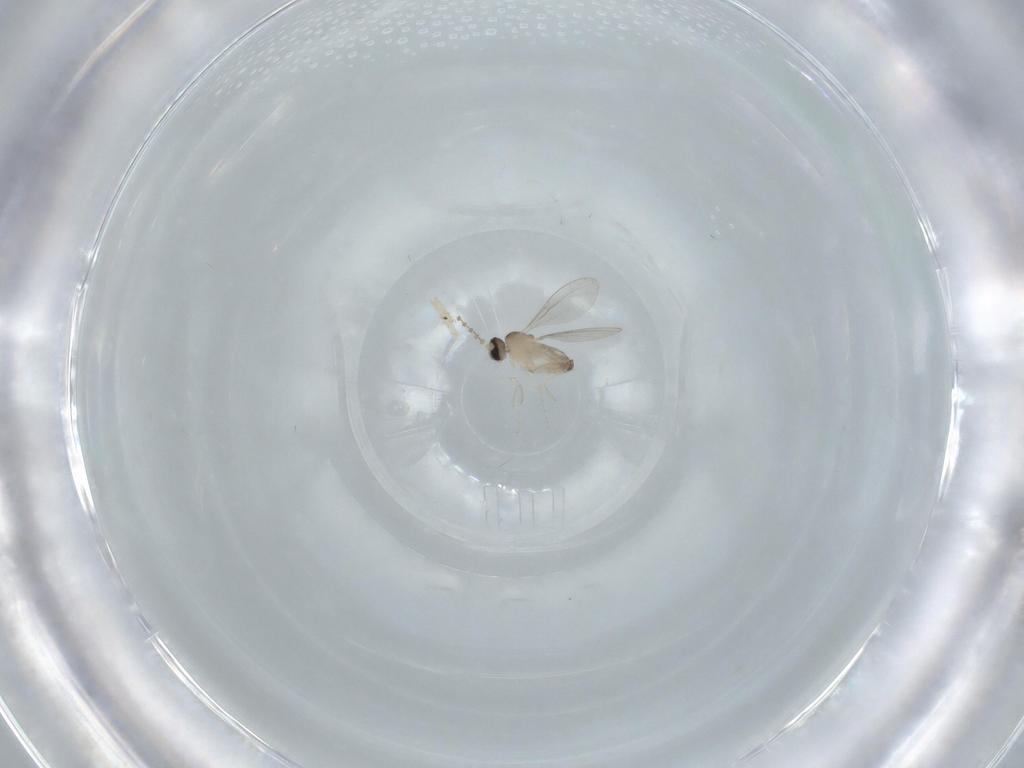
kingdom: Animalia
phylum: Arthropoda
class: Insecta
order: Diptera
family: Cecidomyiidae
